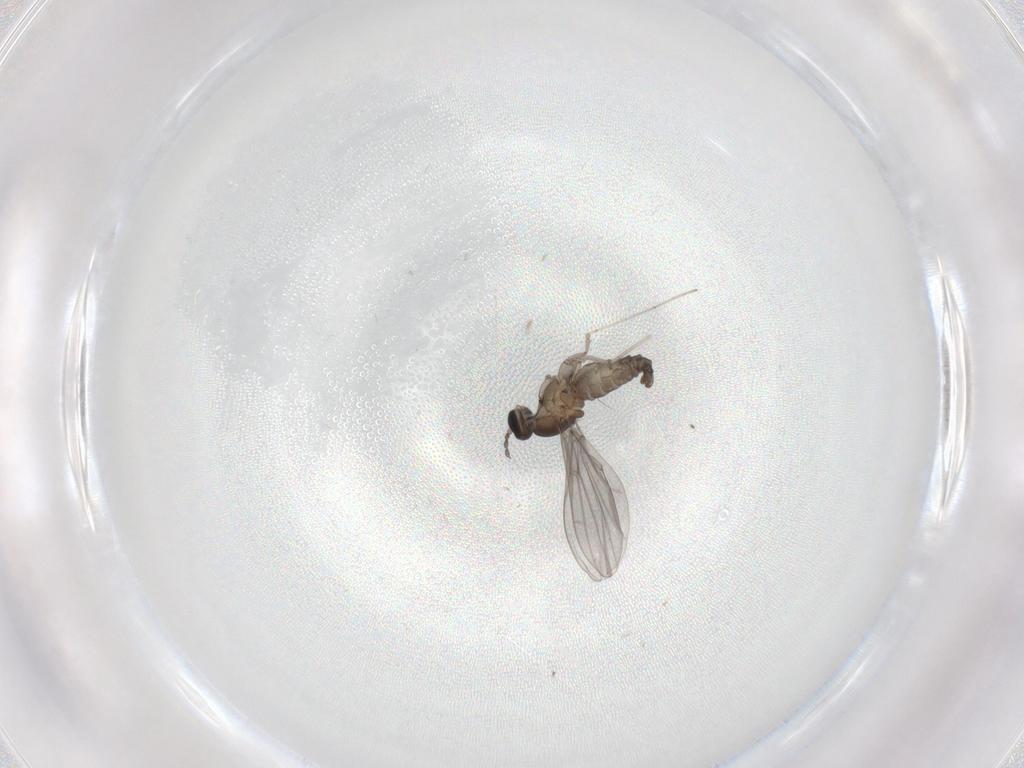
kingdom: Animalia
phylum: Arthropoda
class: Insecta
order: Diptera
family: Cecidomyiidae
